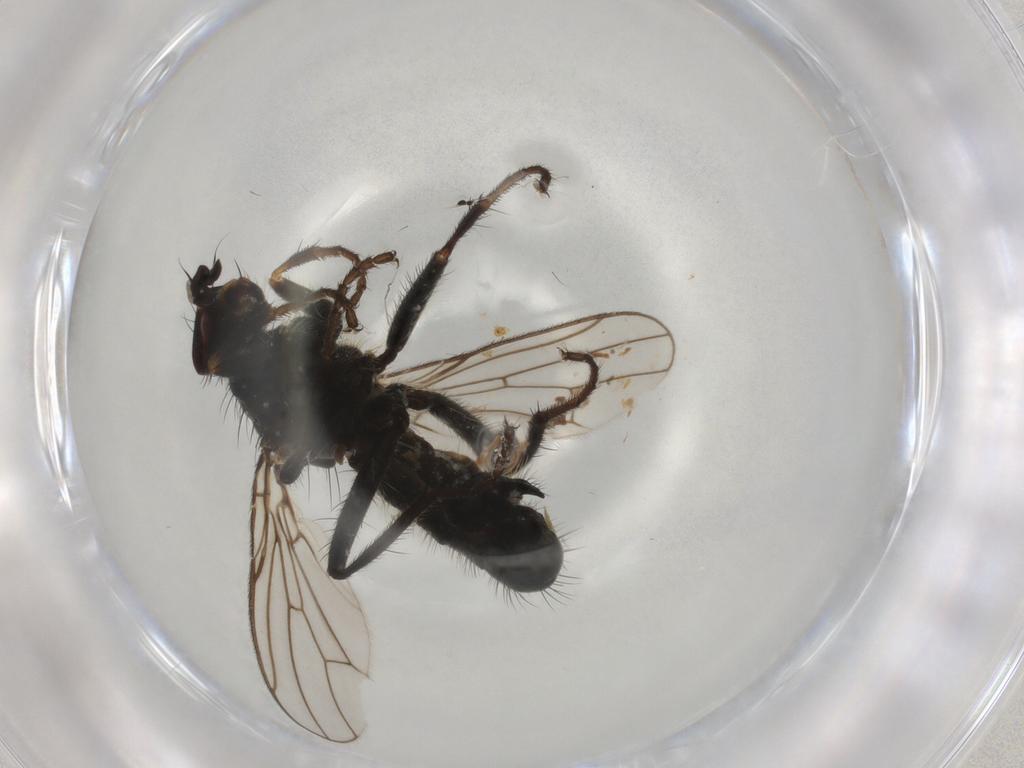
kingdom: Animalia
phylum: Arthropoda
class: Insecta
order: Diptera
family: Scathophagidae
